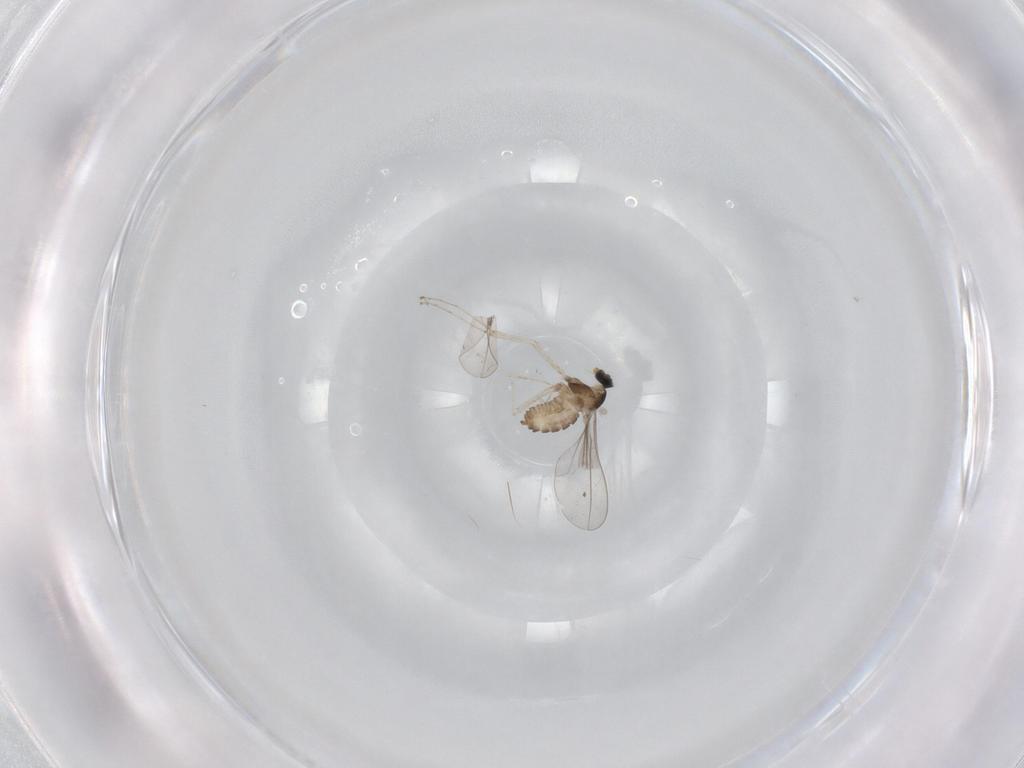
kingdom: Animalia
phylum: Arthropoda
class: Insecta
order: Diptera
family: Cecidomyiidae
